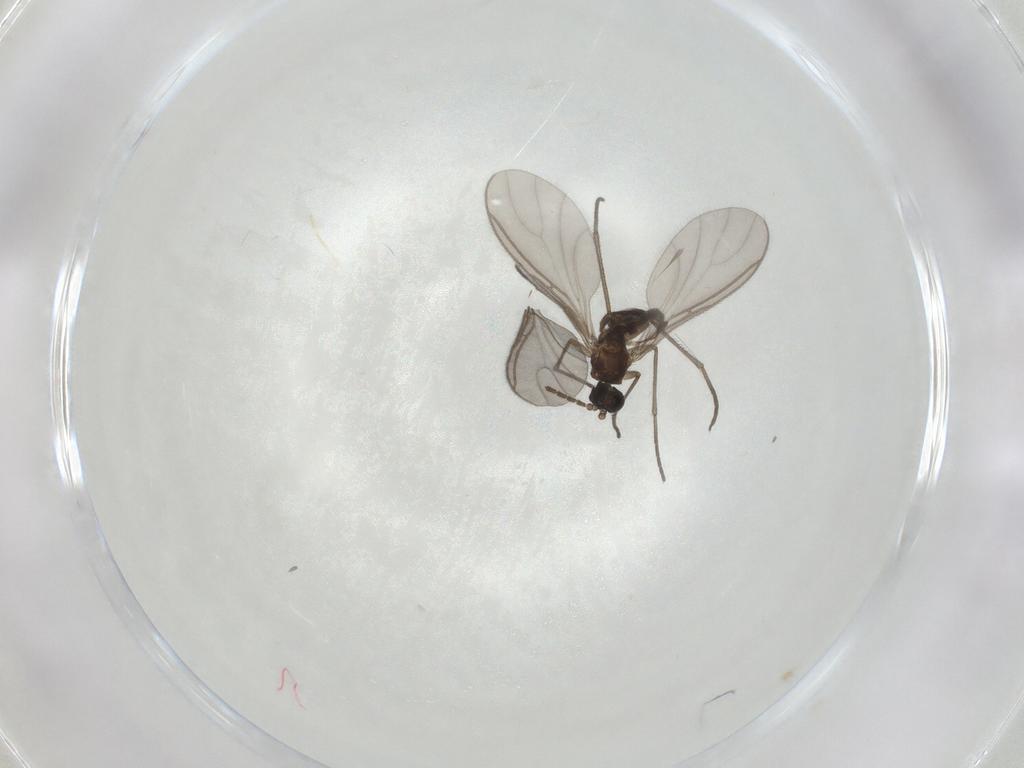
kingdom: Animalia
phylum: Arthropoda
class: Insecta
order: Diptera
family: Sciaridae
